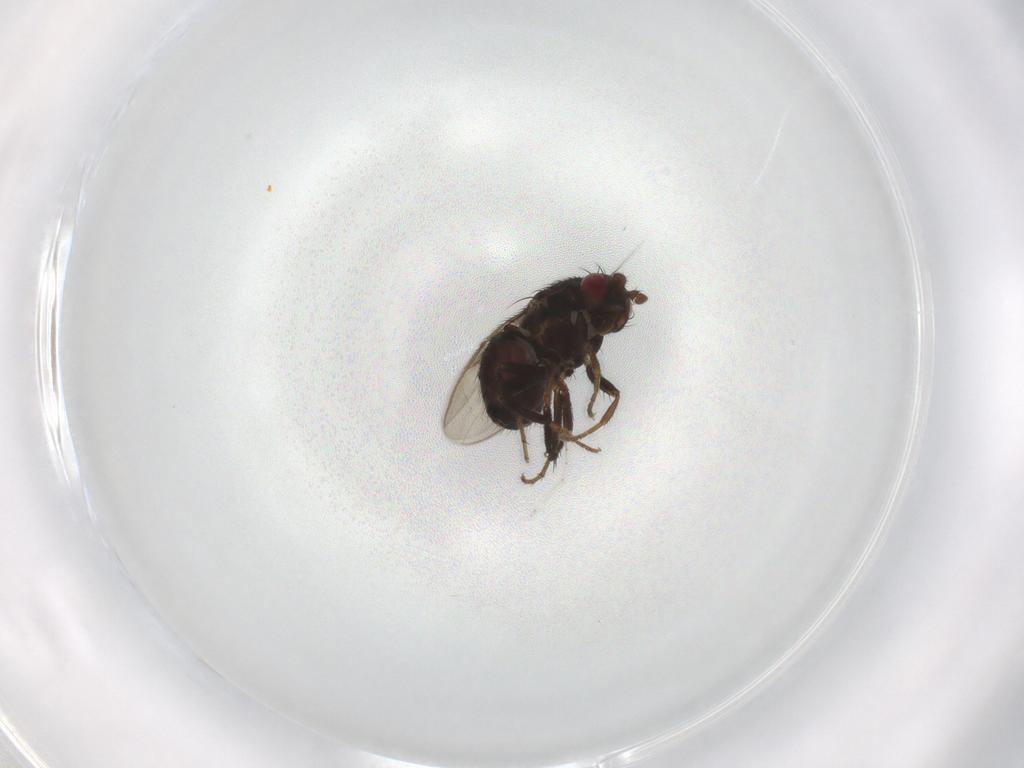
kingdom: Animalia
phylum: Arthropoda
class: Insecta
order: Diptera
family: Sphaeroceridae
